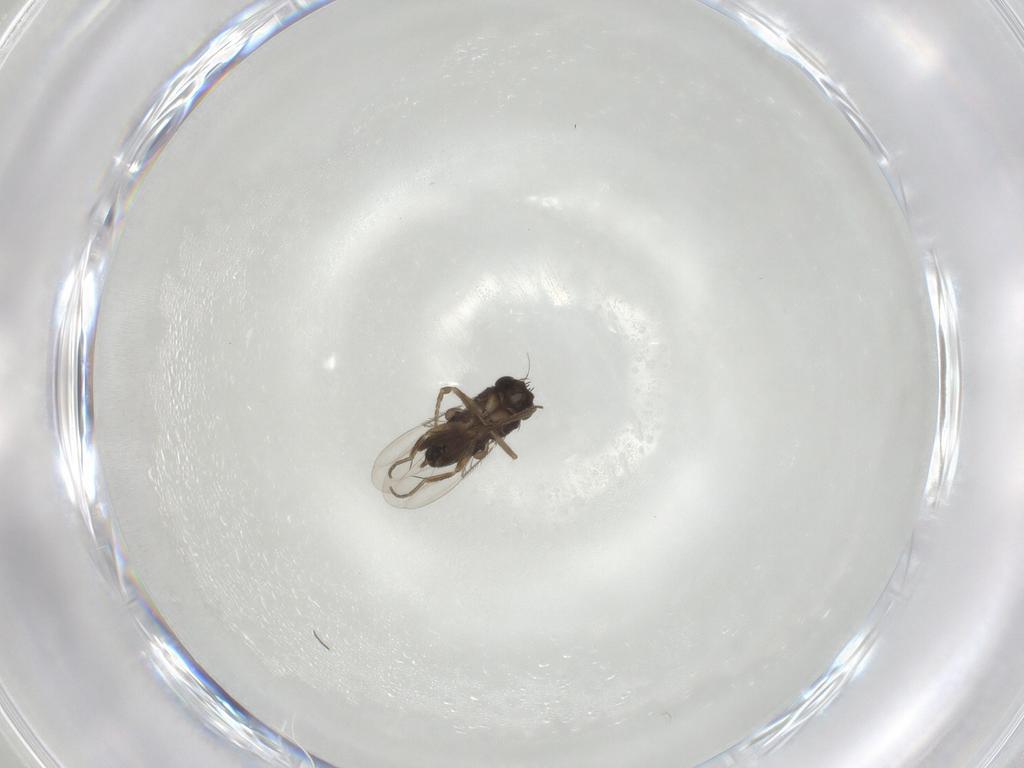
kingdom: Animalia
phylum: Arthropoda
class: Insecta
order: Diptera
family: Phoridae
